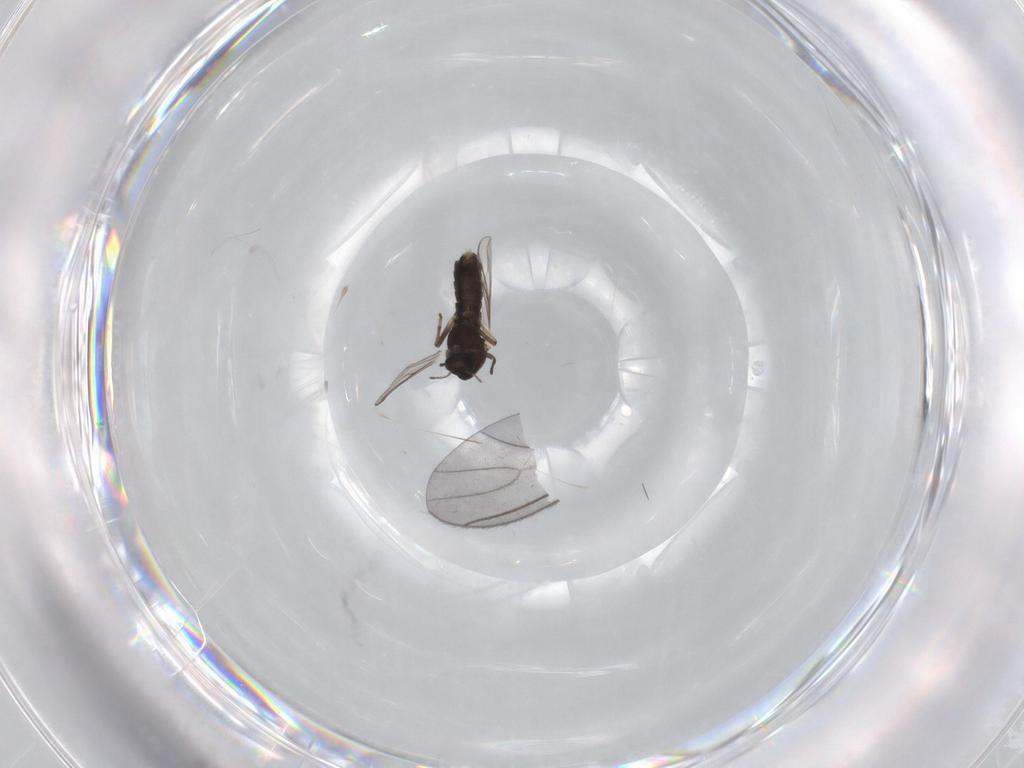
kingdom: Animalia
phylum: Arthropoda
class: Insecta
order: Diptera
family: Chironomidae
